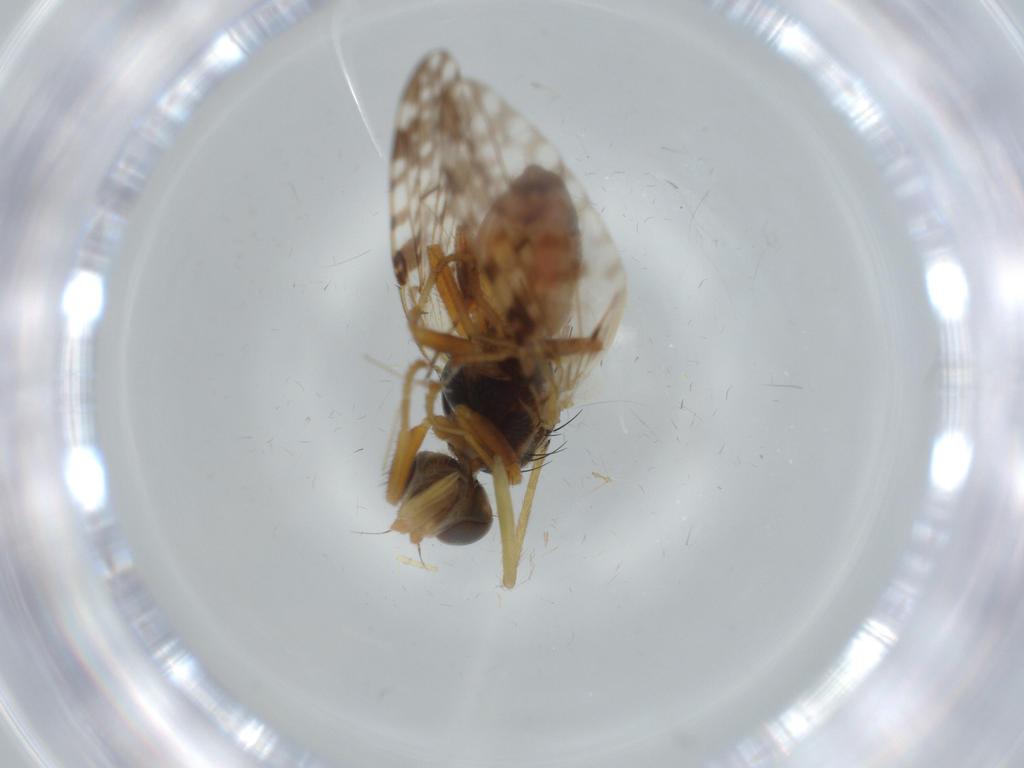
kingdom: Animalia
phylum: Arthropoda
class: Insecta
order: Diptera
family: Tephritidae
